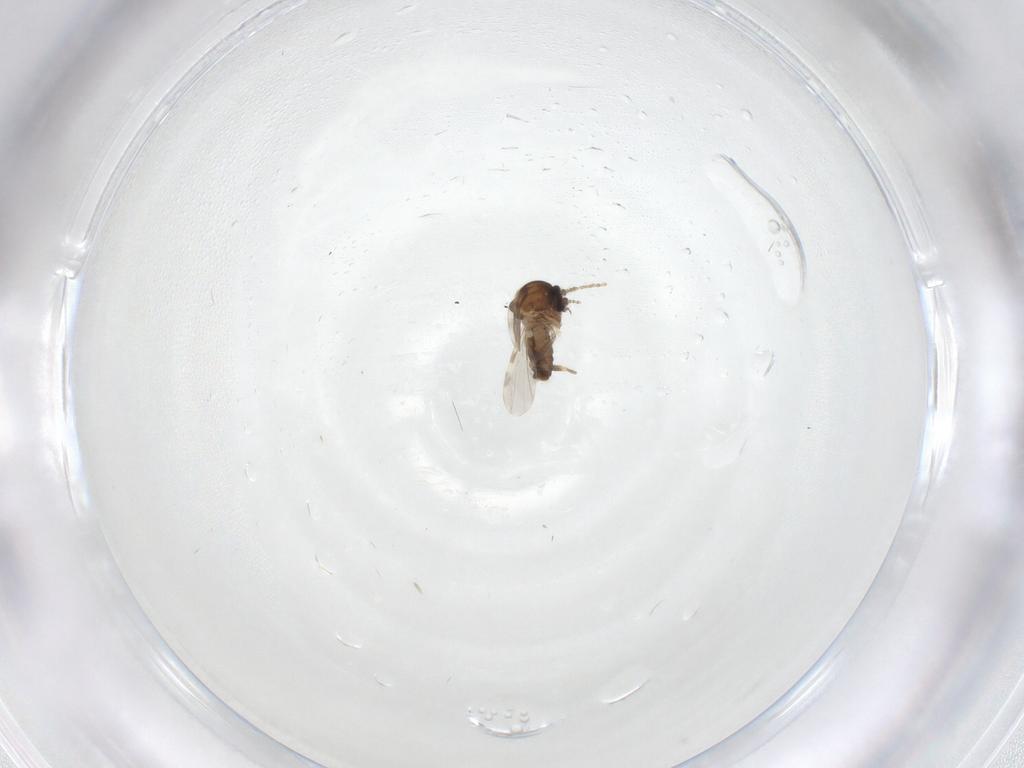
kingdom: Animalia
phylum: Arthropoda
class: Insecta
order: Diptera
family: Ceratopogonidae
